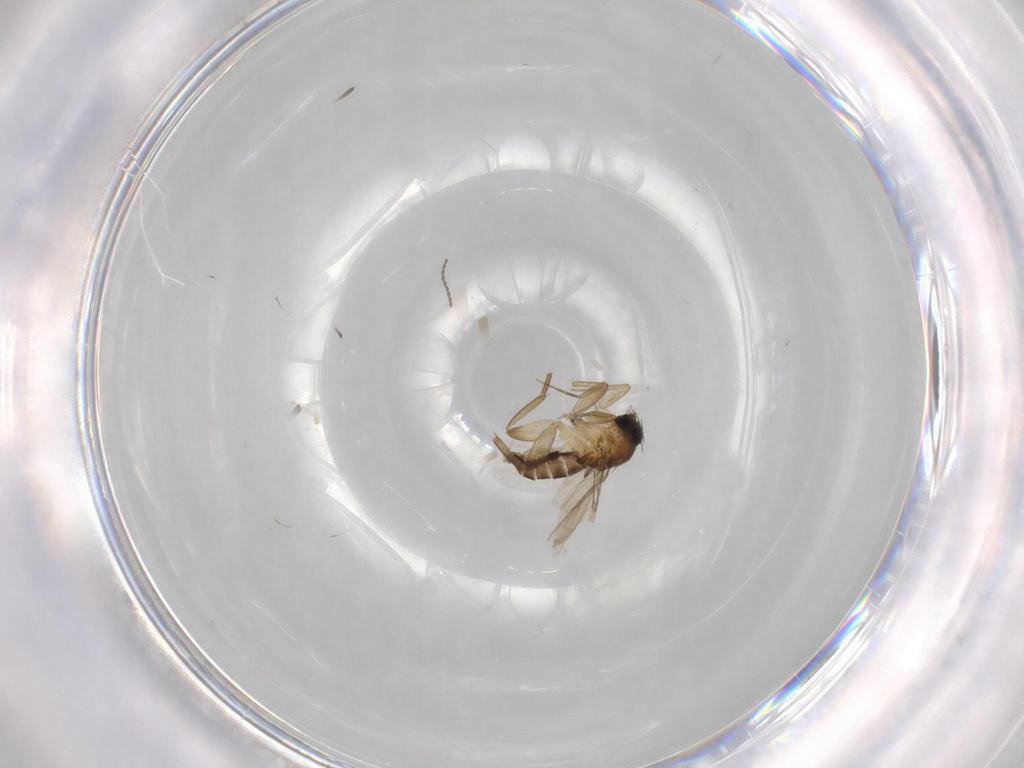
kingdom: Animalia
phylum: Arthropoda
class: Insecta
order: Diptera
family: Phoridae
